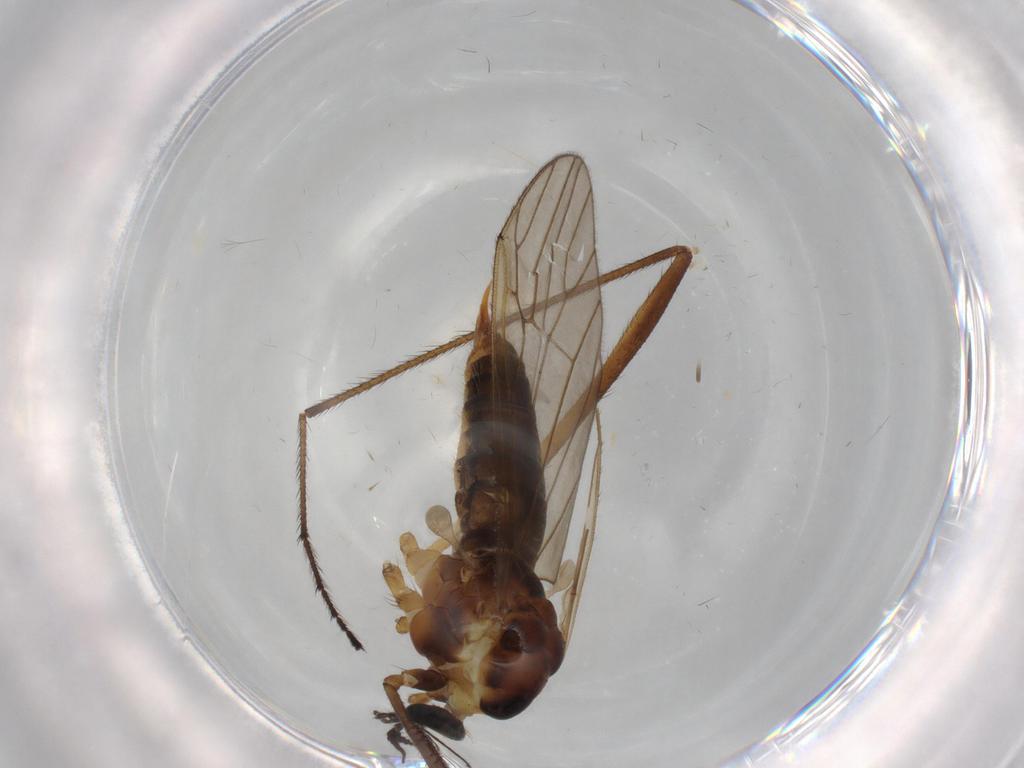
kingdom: Animalia
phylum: Arthropoda
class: Insecta
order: Diptera
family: Agromyzidae
